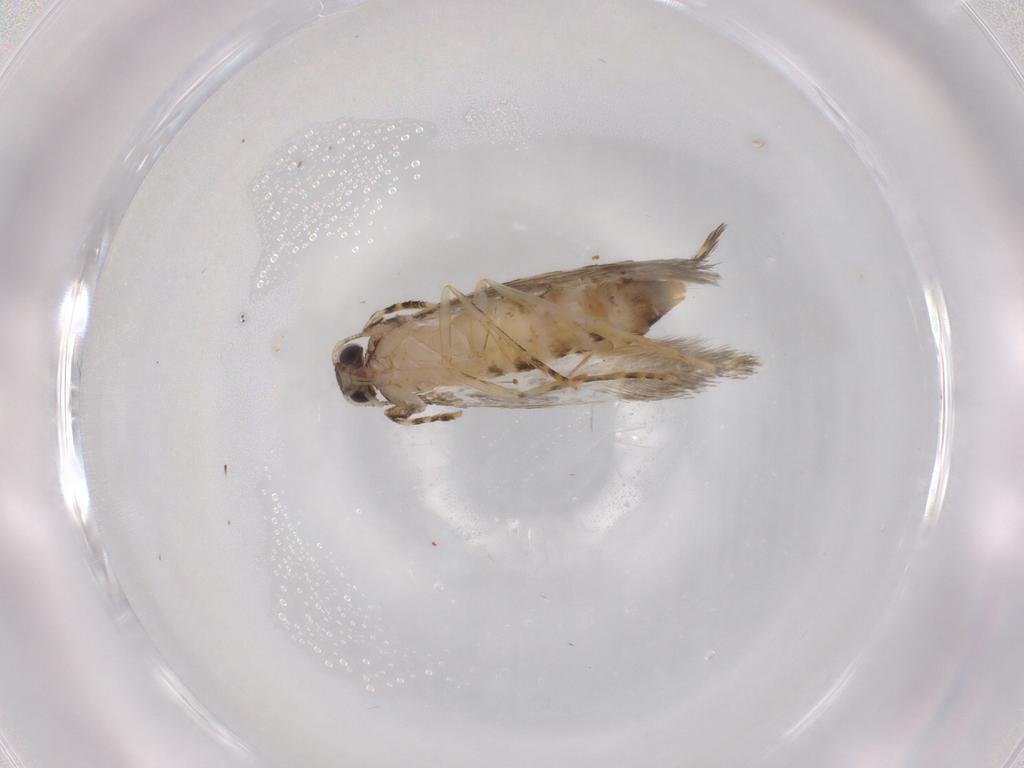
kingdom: Animalia
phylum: Arthropoda
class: Insecta
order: Lepidoptera
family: Tineidae
